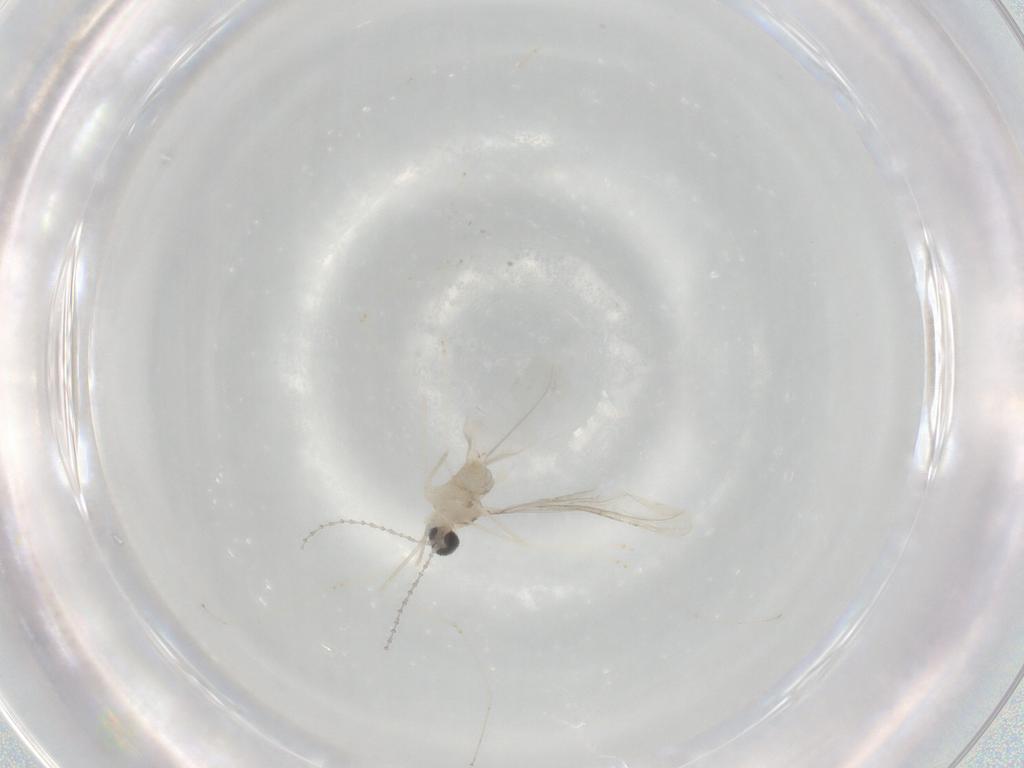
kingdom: Animalia
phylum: Arthropoda
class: Insecta
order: Diptera
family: Cecidomyiidae
